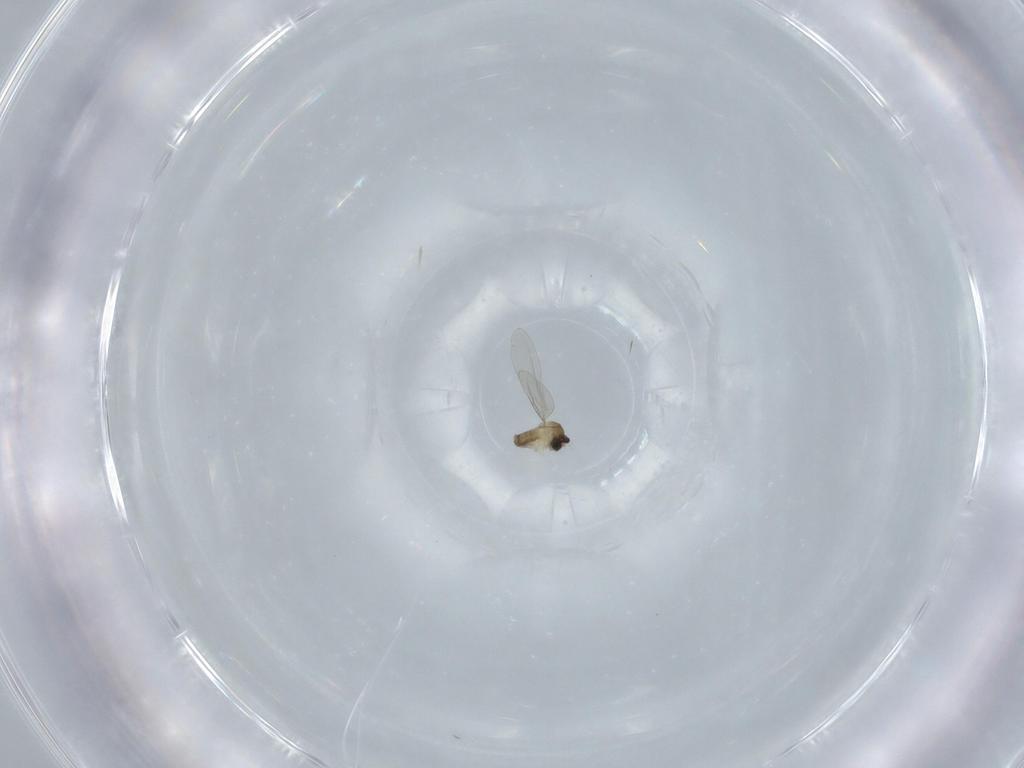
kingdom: Animalia
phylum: Arthropoda
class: Insecta
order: Diptera
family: Cecidomyiidae
